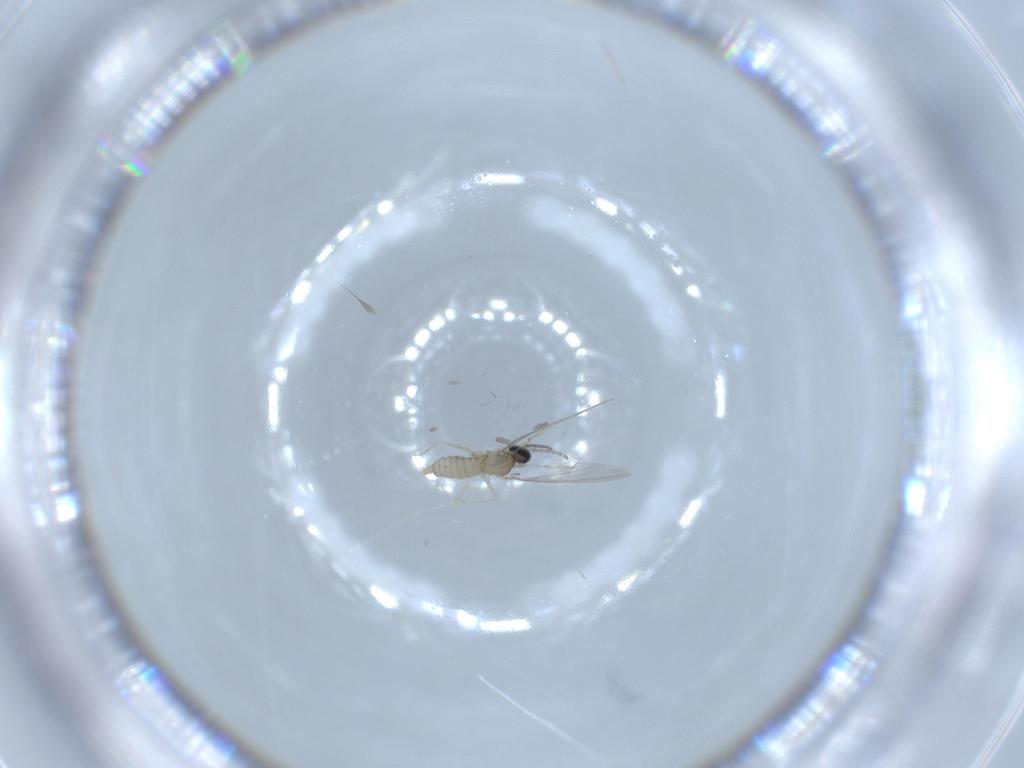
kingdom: Animalia
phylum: Arthropoda
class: Insecta
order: Diptera
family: Cecidomyiidae
